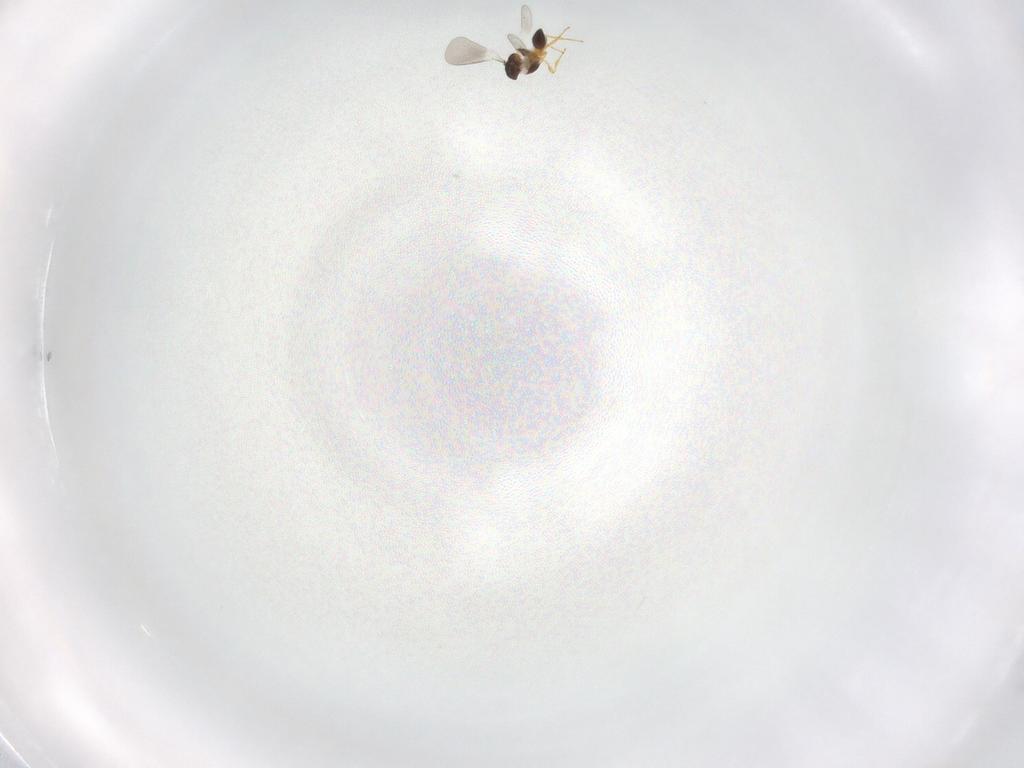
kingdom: Animalia
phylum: Arthropoda
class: Insecta
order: Hymenoptera
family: Platygastridae
